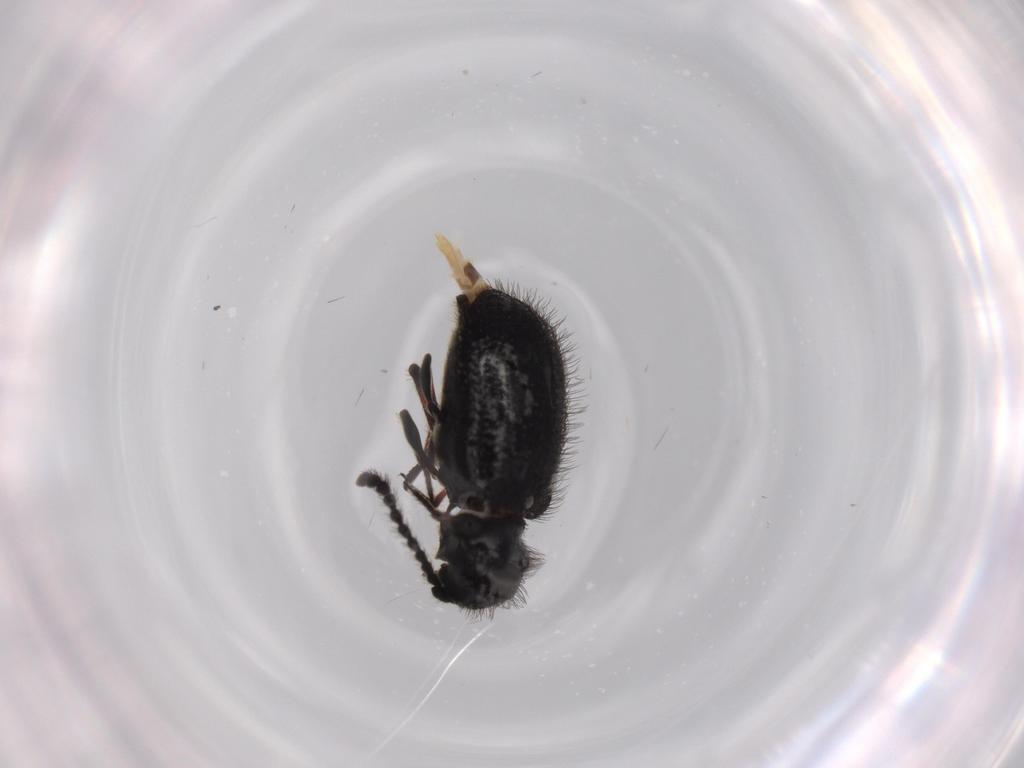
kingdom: Animalia
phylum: Arthropoda
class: Insecta
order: Coleoptera
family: Ptinidae
